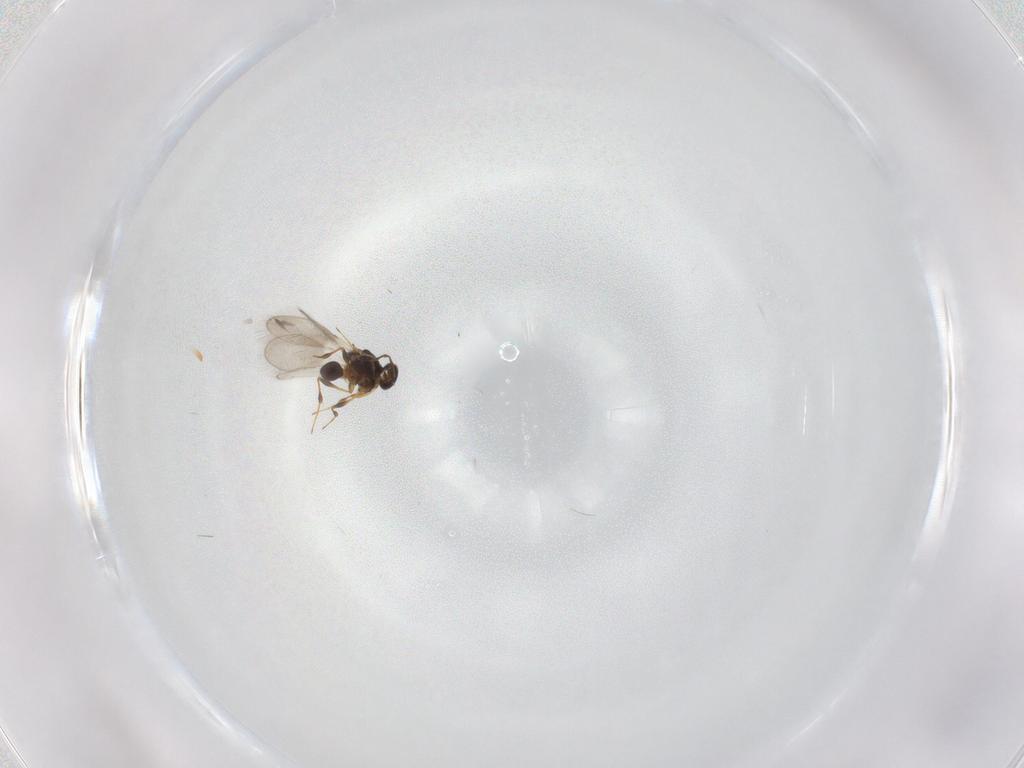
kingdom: Animalia
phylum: Arthropoda
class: Insecta
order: Hymenoptera
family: Platygastridae
